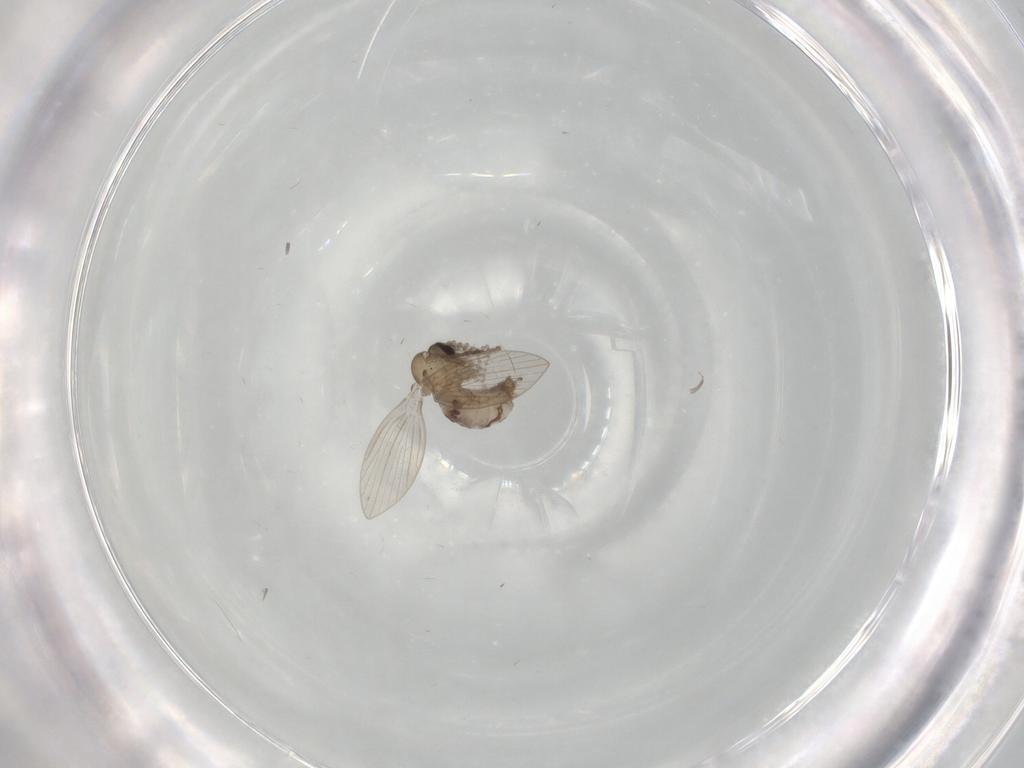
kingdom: Animalia
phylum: Arthropoda
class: Insecta
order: Diptera
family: Psychodidae
